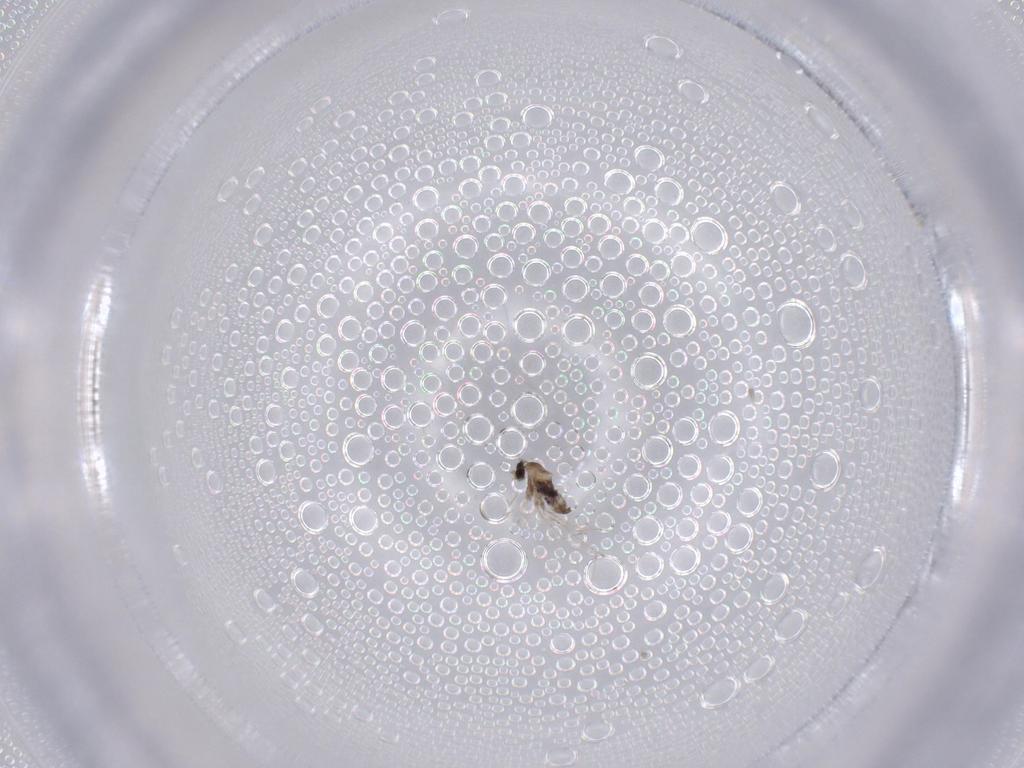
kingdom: Animalia
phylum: Arthropoda
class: Insecta
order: Diptera
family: Cecidomyiidae
